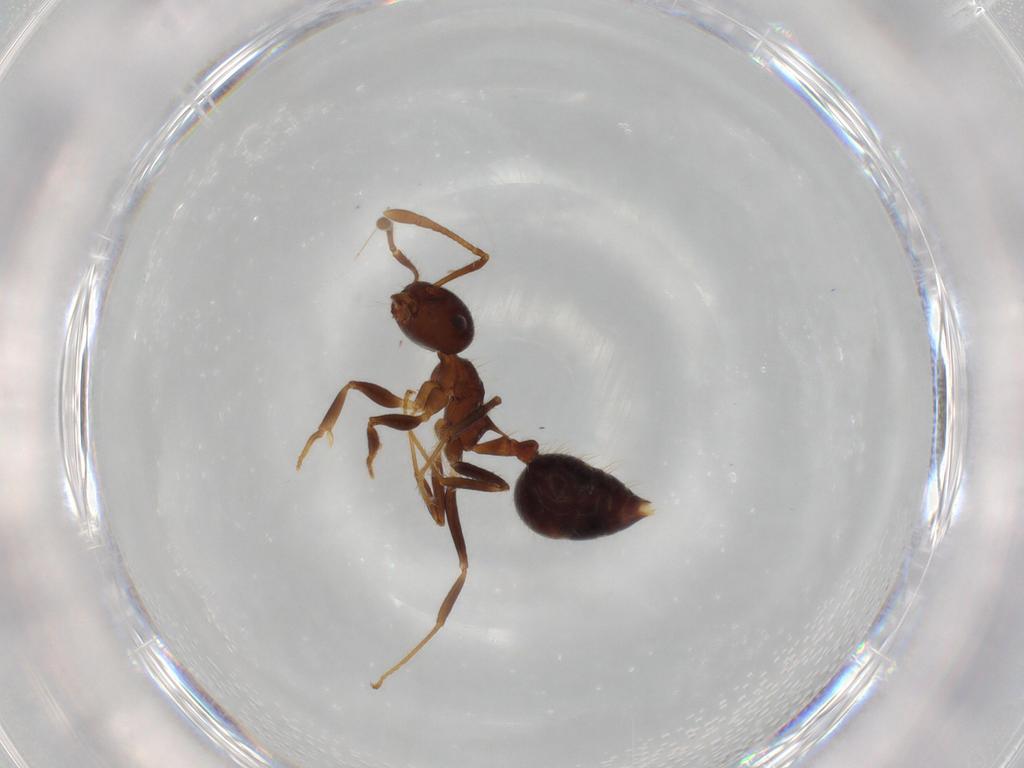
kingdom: Animalia
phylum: Arthropoda
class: Insecta
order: Hymenoptera
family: Formicidae
